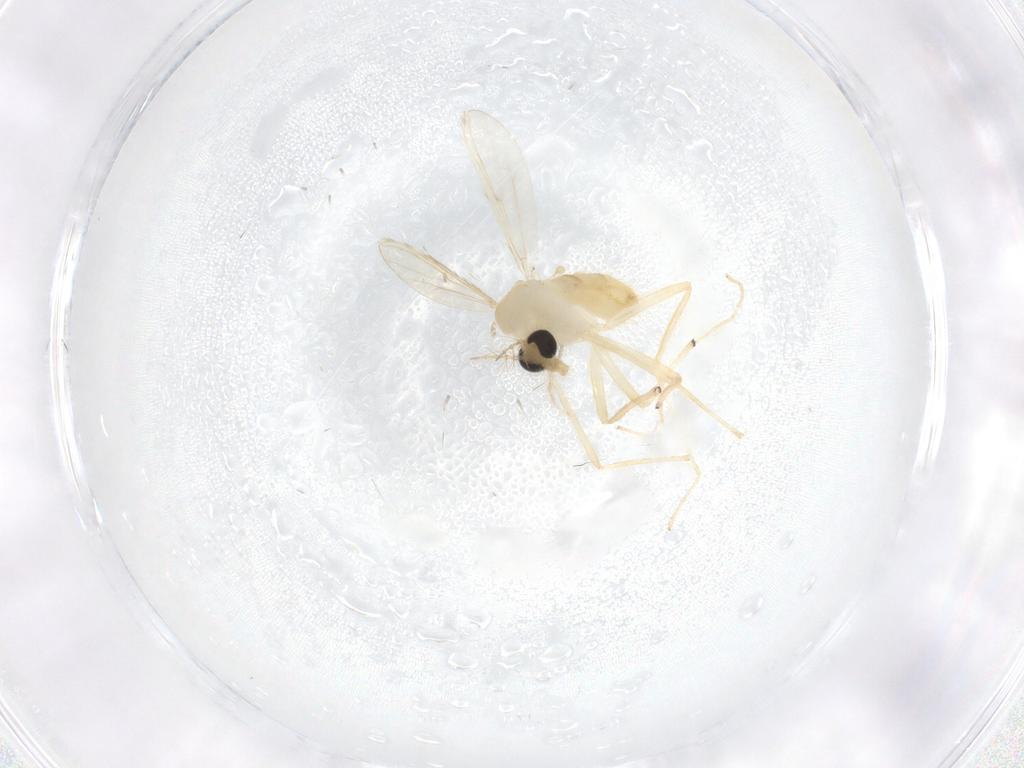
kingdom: Animalia
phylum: Arthropoda
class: Insecta
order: Diptera
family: Chironomidae
